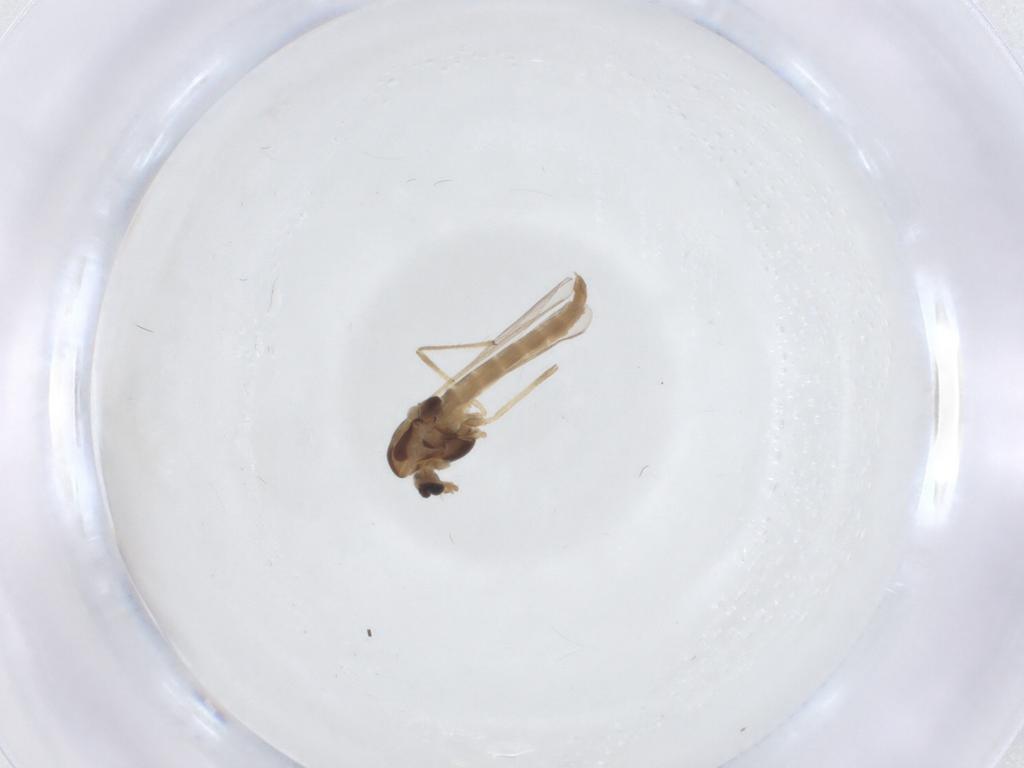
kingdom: Animalia
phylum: Arthropoda
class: Insecta
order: Diptera
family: Chironomidae
